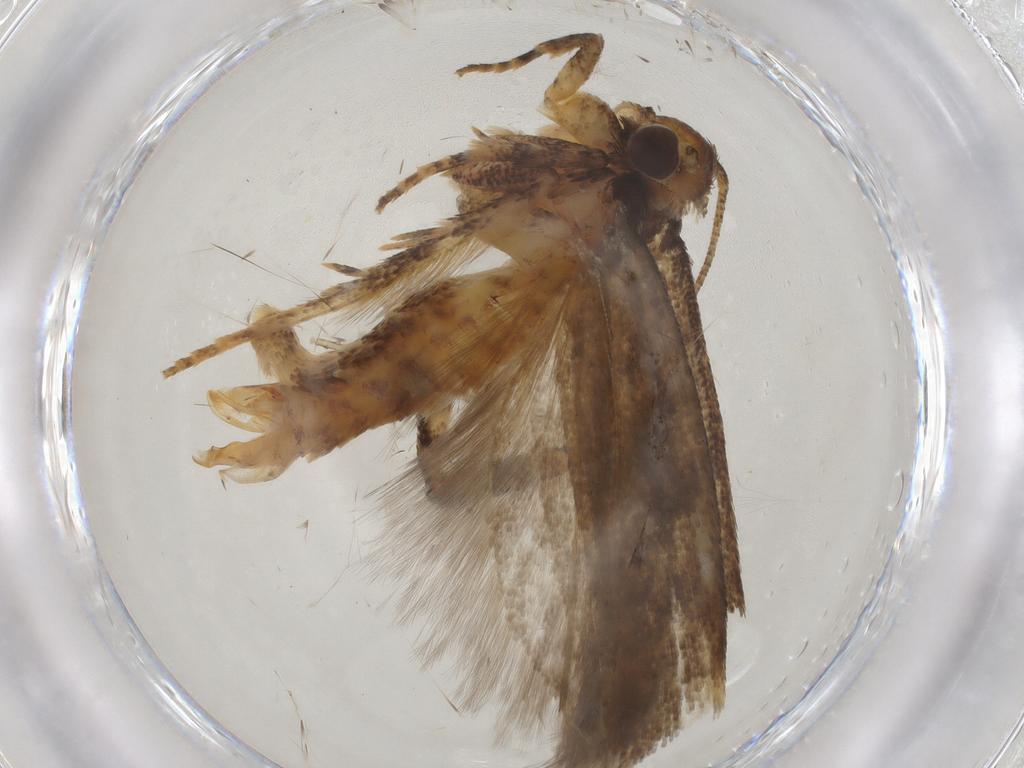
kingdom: Animalia
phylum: Arthropoda
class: Insecta
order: Lepidoptera
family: Gelechiidae
